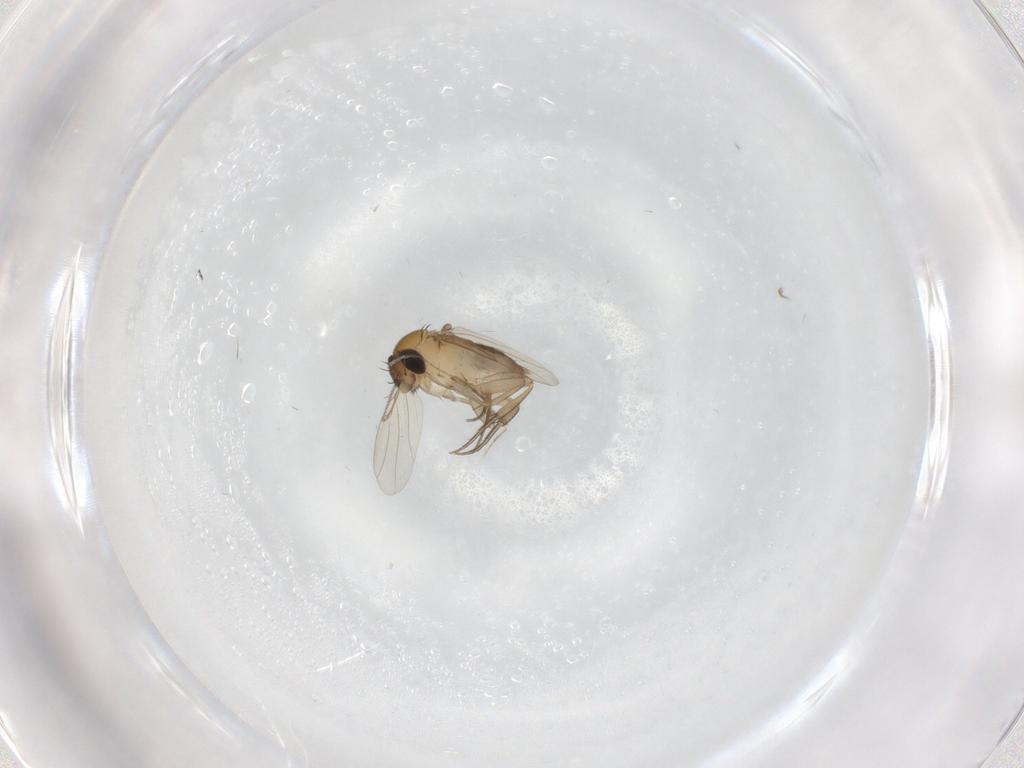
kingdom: Animalia
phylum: Arthropoda
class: Insecta
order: Diptera
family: Phoridae
